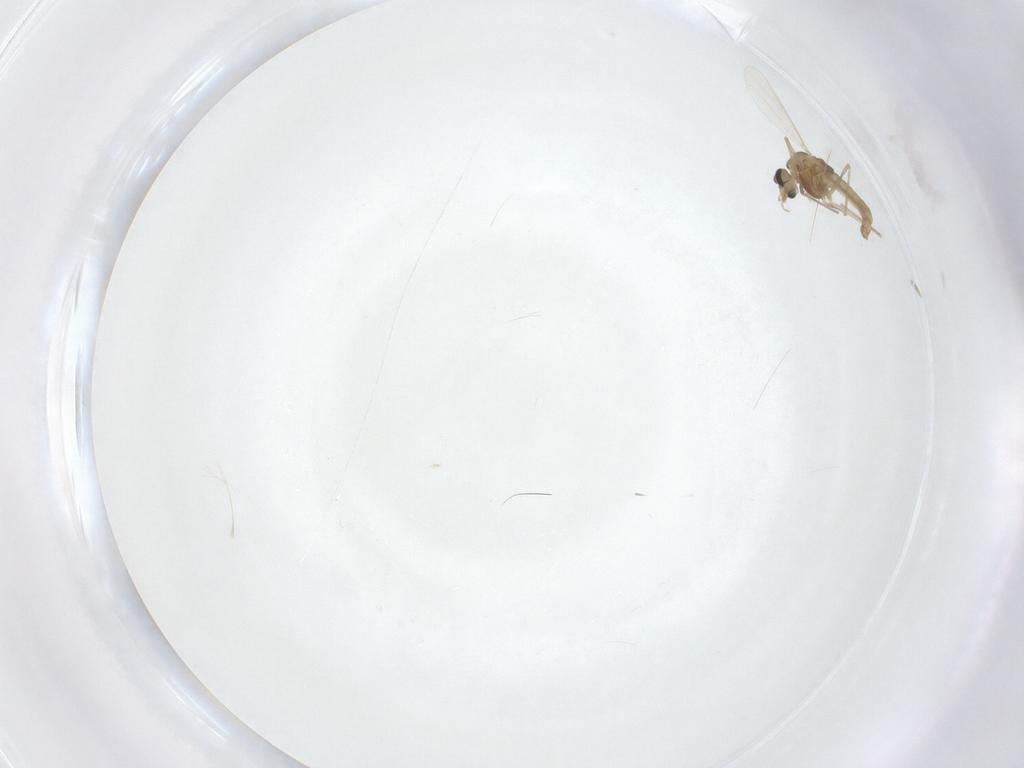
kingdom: Animalia
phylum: Arthropoda
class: Insecta
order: Diptera
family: Chironomidae
